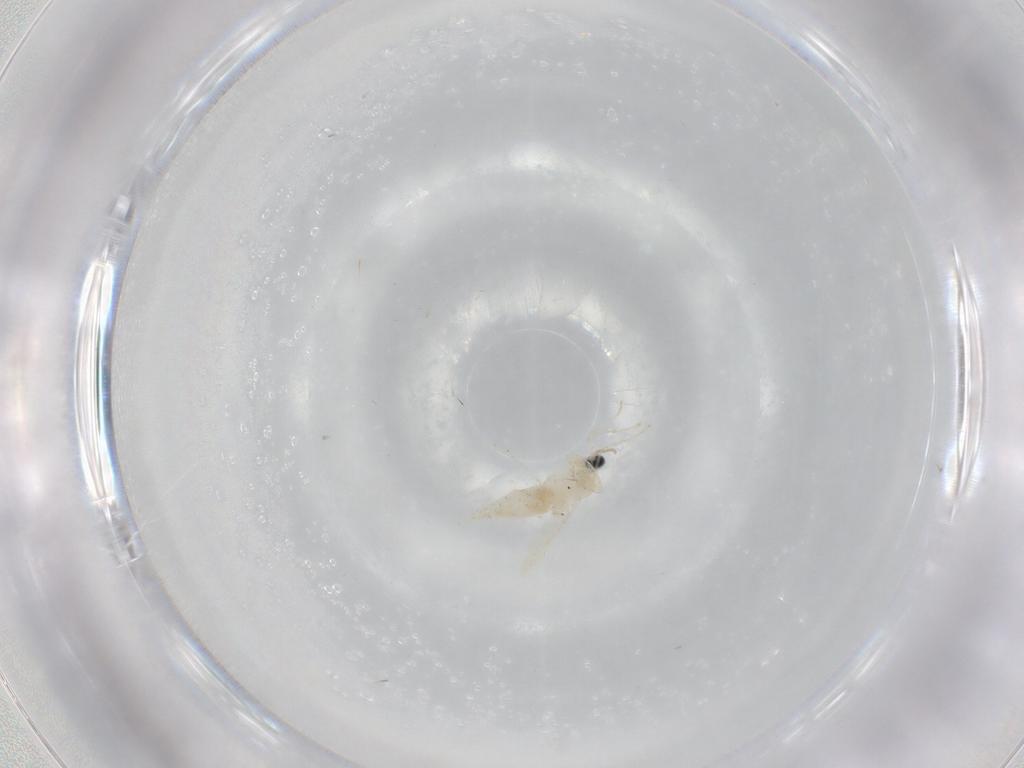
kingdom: Animalia
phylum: Arthropoda
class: Insecta
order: Diptera
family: Cecidomyiidae
